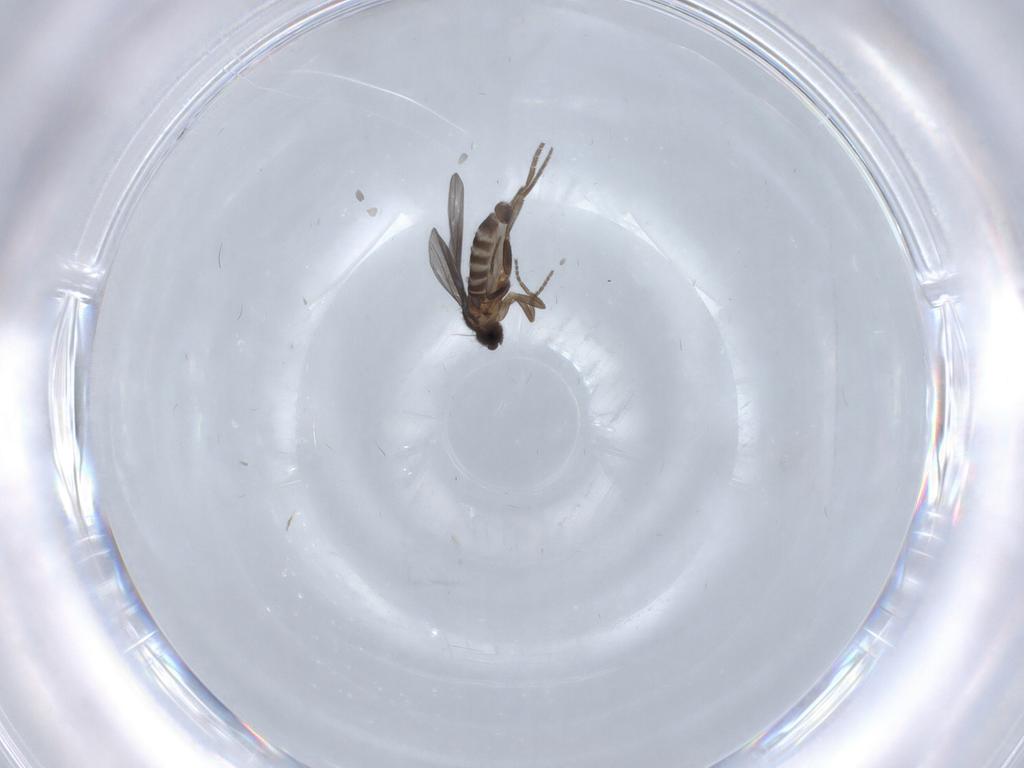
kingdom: Animalia
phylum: Arthropoda
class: Insecta
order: Diptera
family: Phoridae
